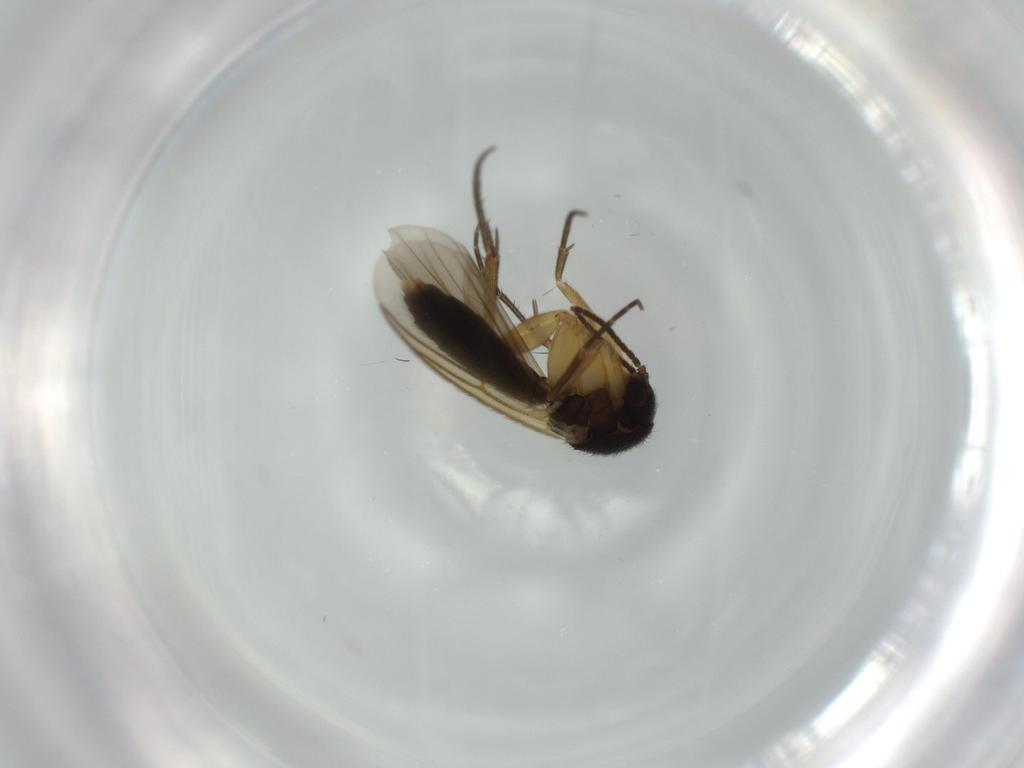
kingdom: Animalia
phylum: Arthropoda
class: Insecta
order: Diptera
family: Mycetophilidae
